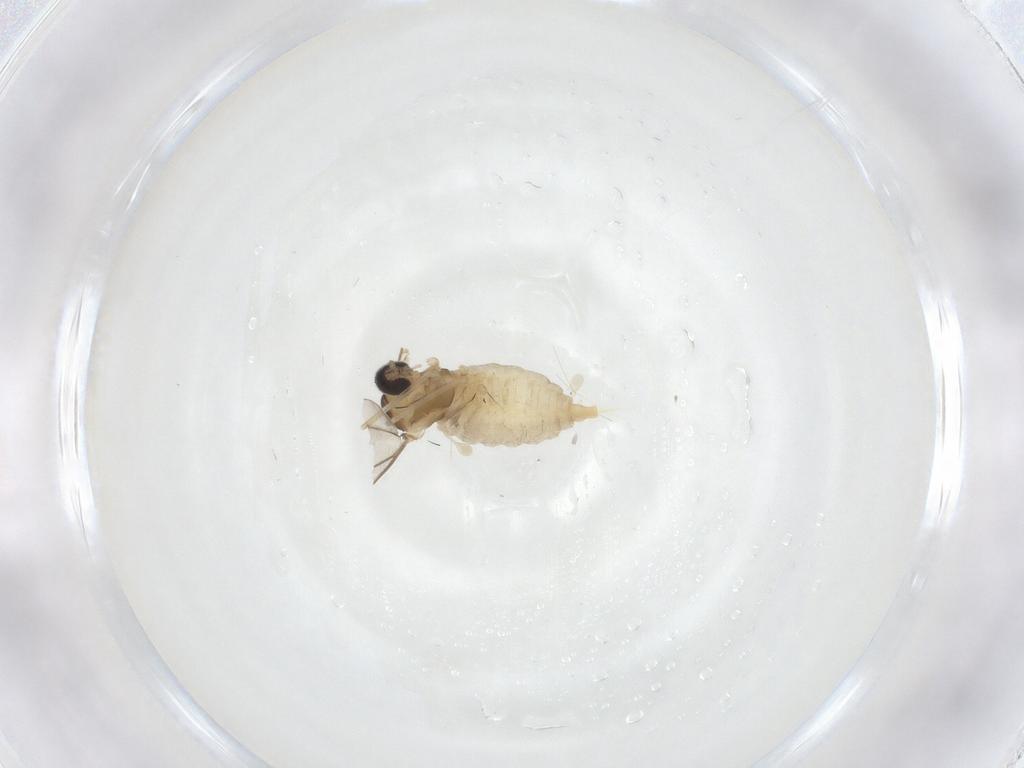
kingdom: Animalia
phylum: Arthropoda
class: Insecta
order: Diptera
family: Cecidomyiidae
